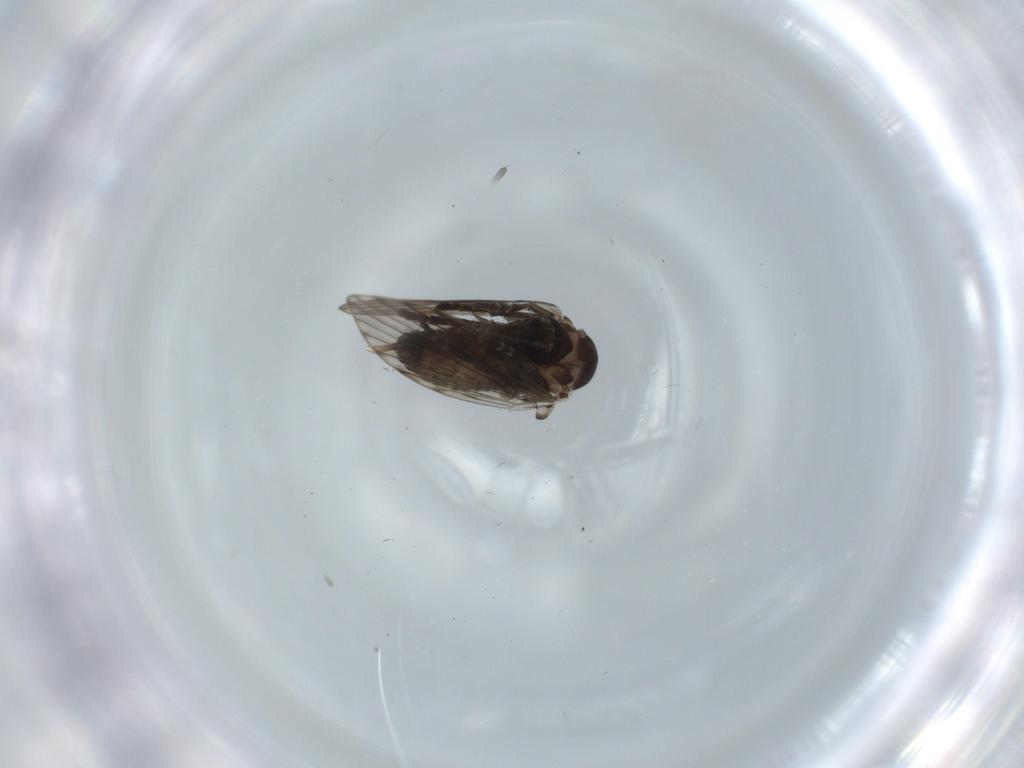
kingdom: Animalia
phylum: Arthropoda
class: Insecta
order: Diptera
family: Psychodidae
